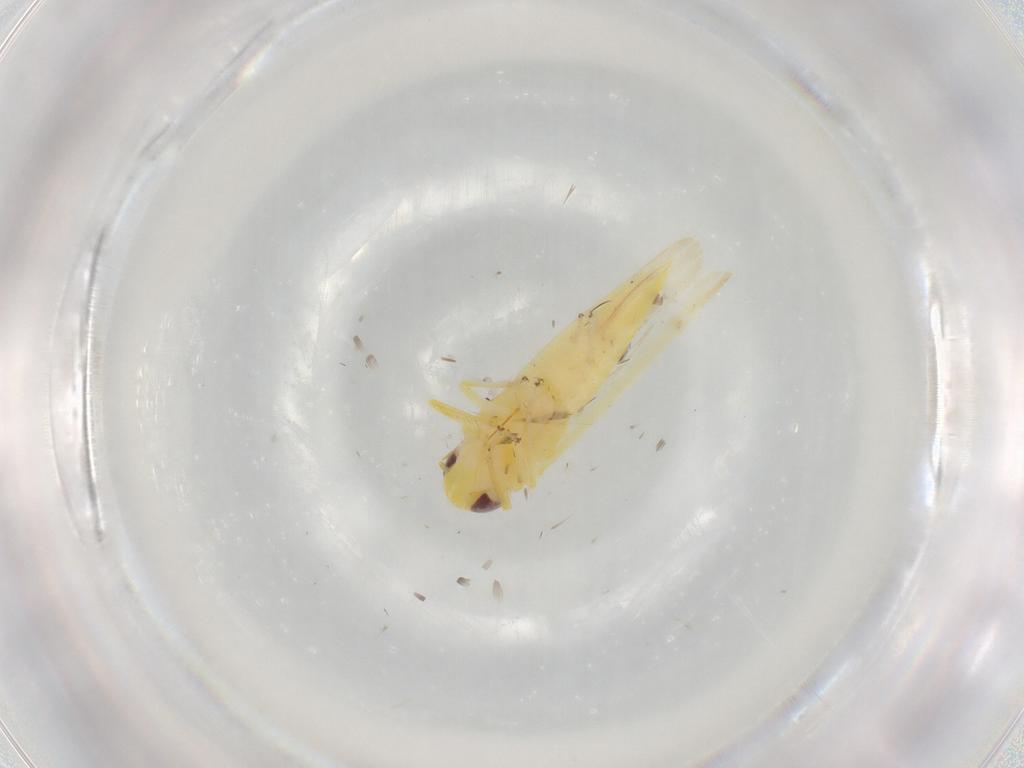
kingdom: Animalia
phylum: Arthropoda
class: Insecta
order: Hemiptera
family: Cicadellidae
